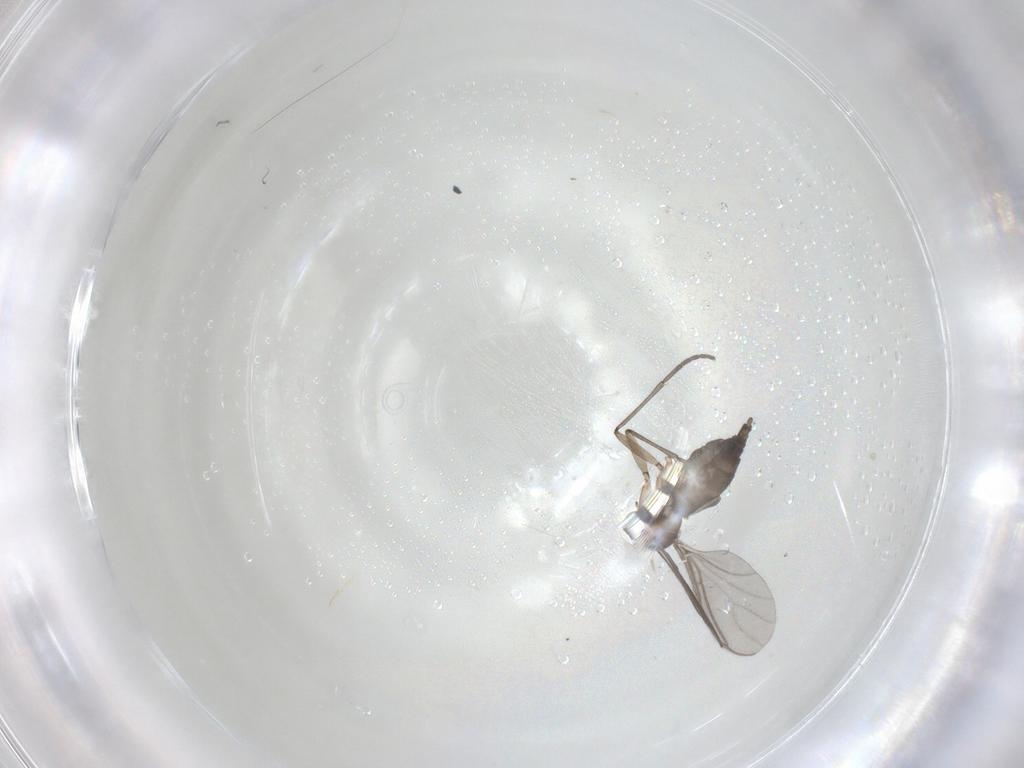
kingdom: Animalia
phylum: Arthropoda
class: Insecta
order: Diptera
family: Sciaridae
